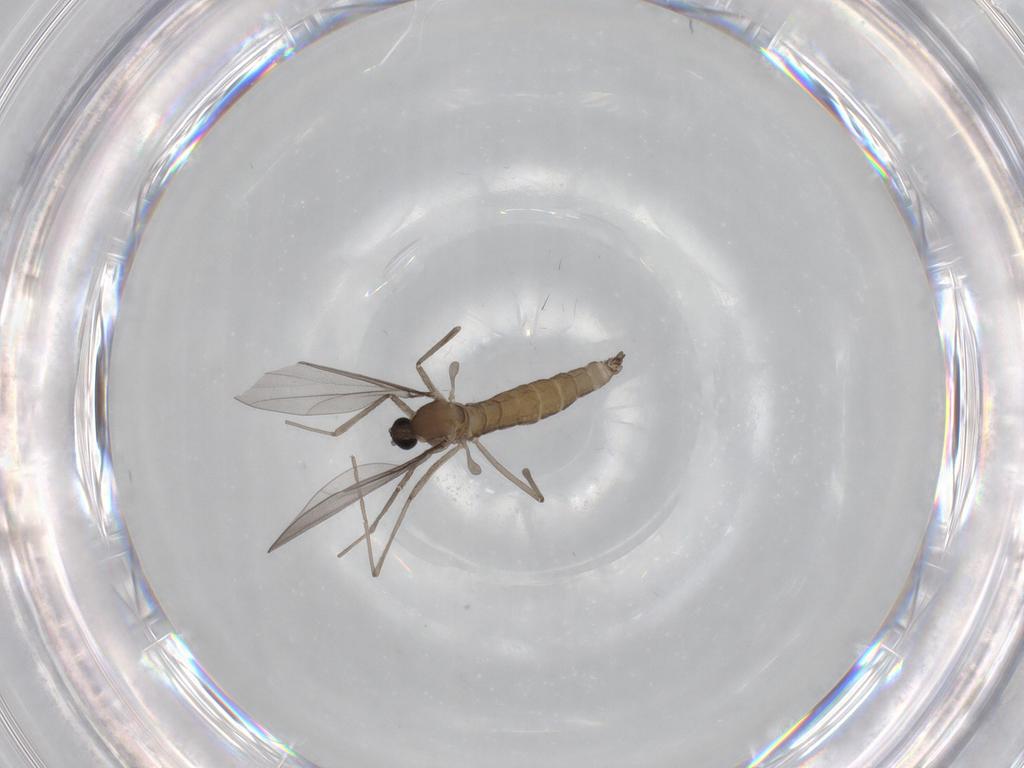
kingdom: Animalia
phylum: Arthropoda
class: Insecta
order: Diptera
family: Cecidomyiidae
